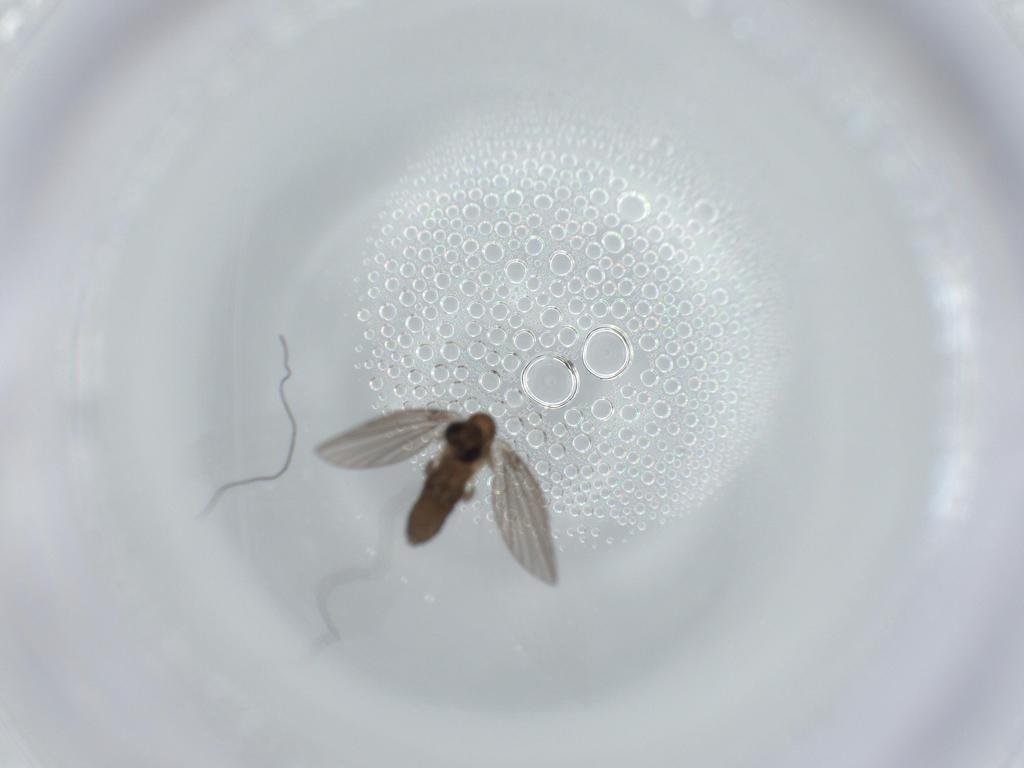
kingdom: Animalia
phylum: Arthropoda
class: Insecta
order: Diptera
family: Psychodidae
